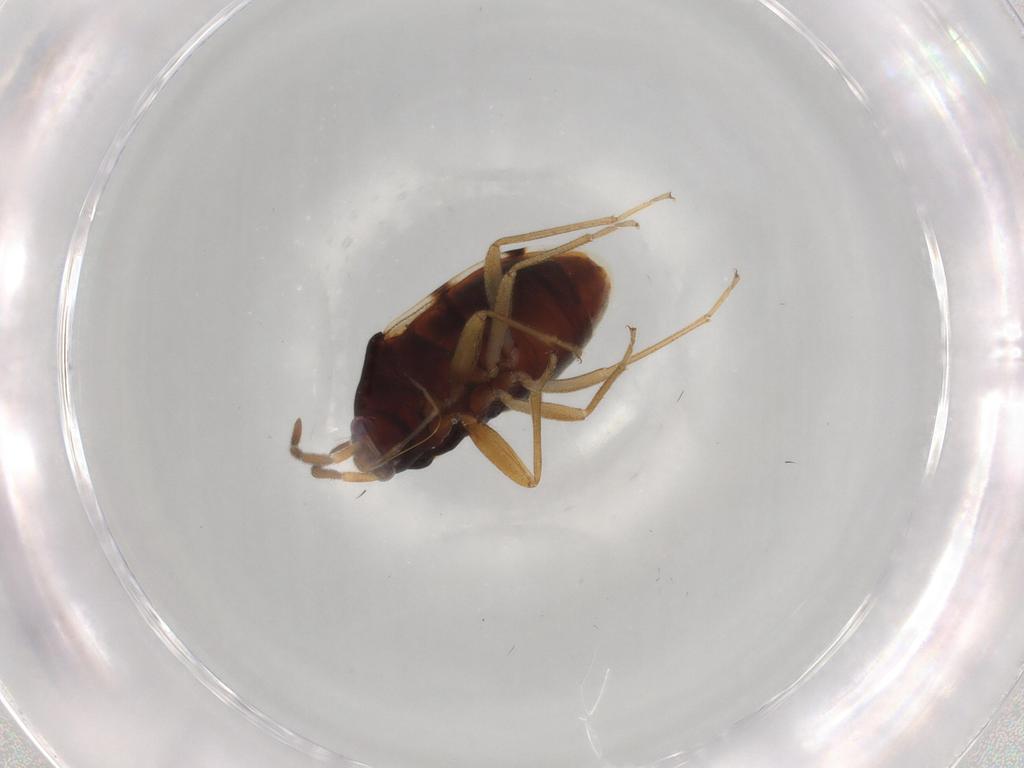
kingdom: Animalia
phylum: Arthropoda
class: Insecta
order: Hemiptera
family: Rhyparochromidae
